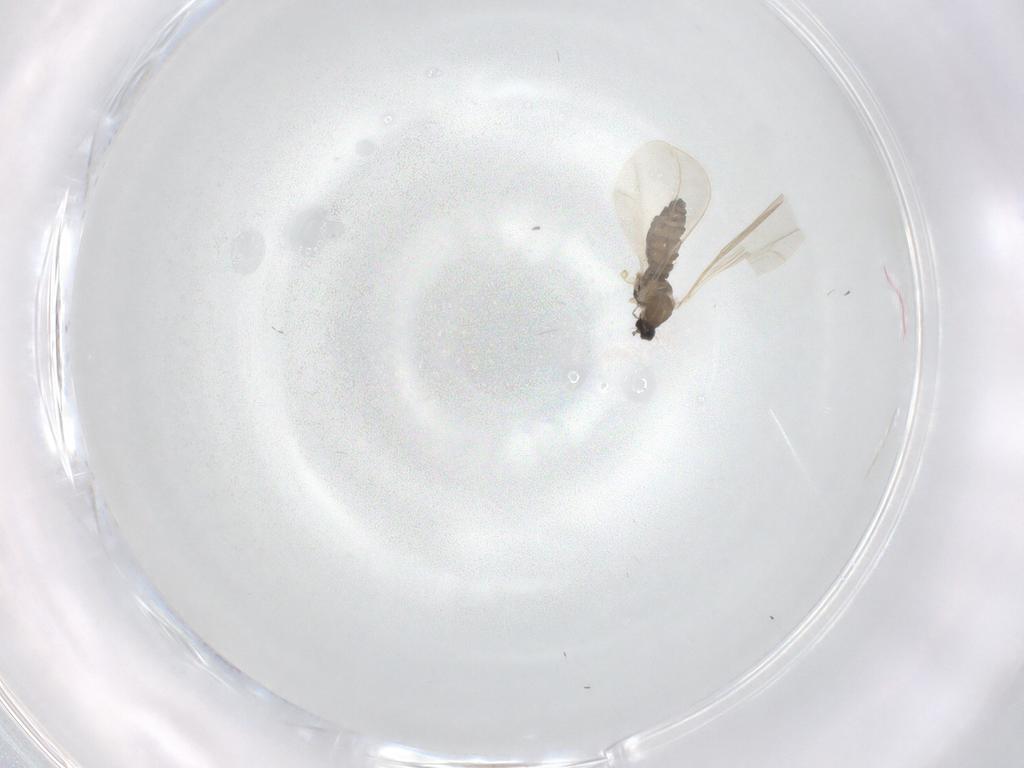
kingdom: Animalia
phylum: Arthropoda
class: Insecta
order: Diptera
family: Cecidomyiidae
